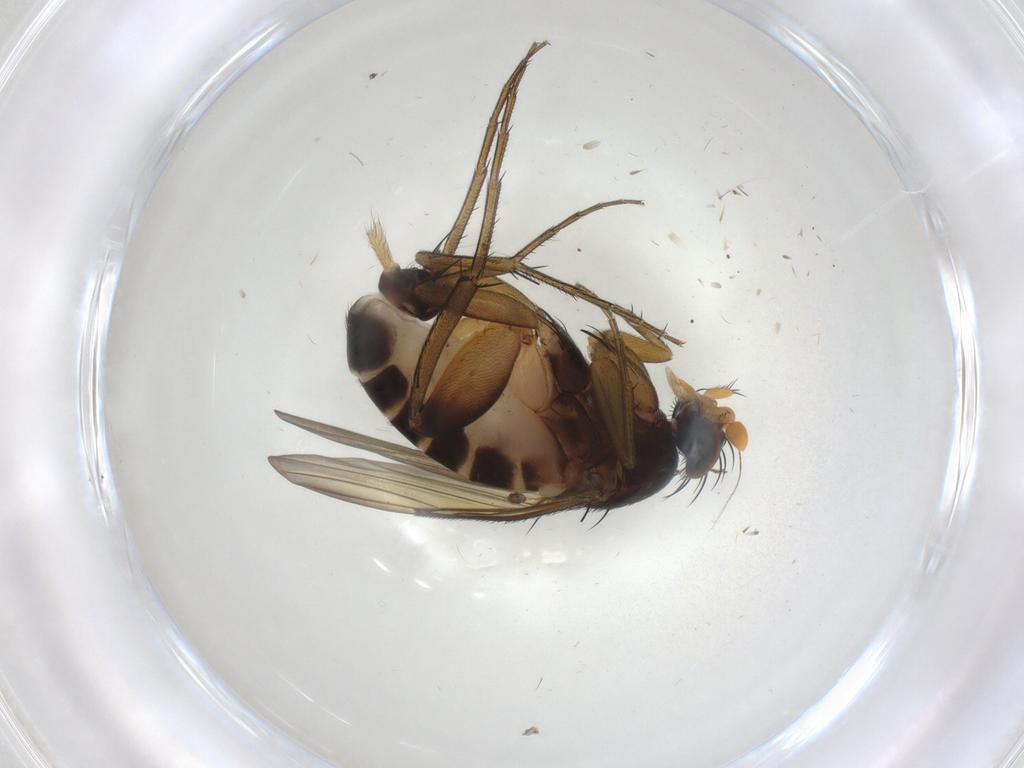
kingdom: Animalia
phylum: Arthropoda
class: Insecta
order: Diptera
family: Phoridae
